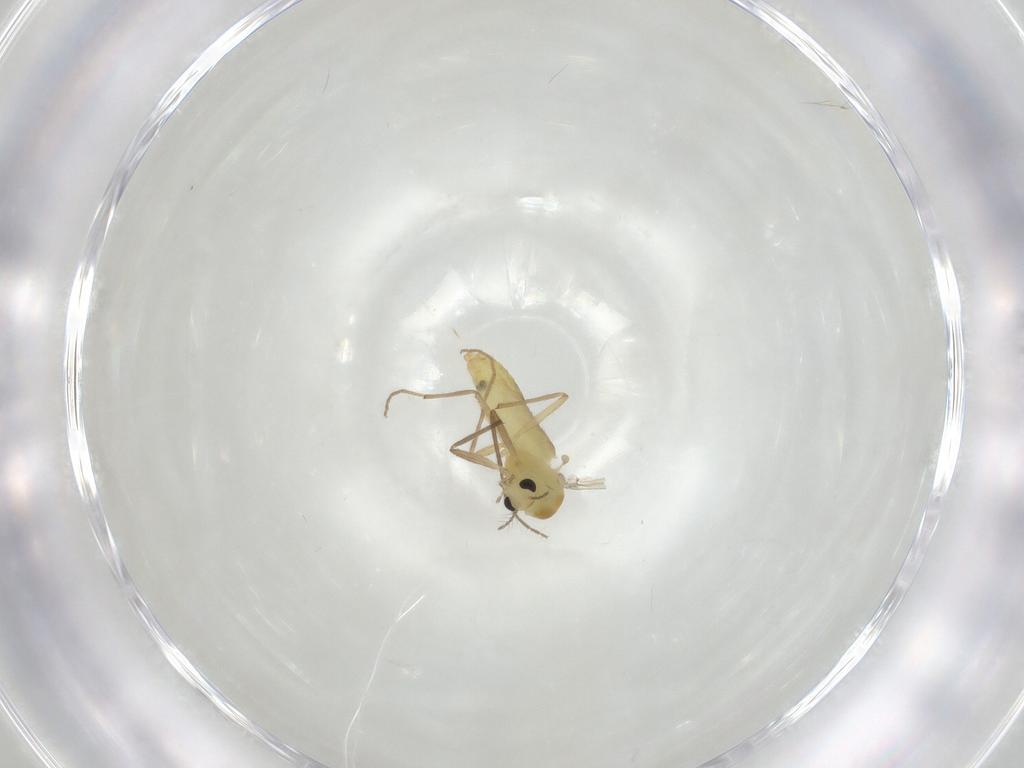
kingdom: Animalia
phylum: Arthropoda
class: Insecta
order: Diptera
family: Chironomidae
